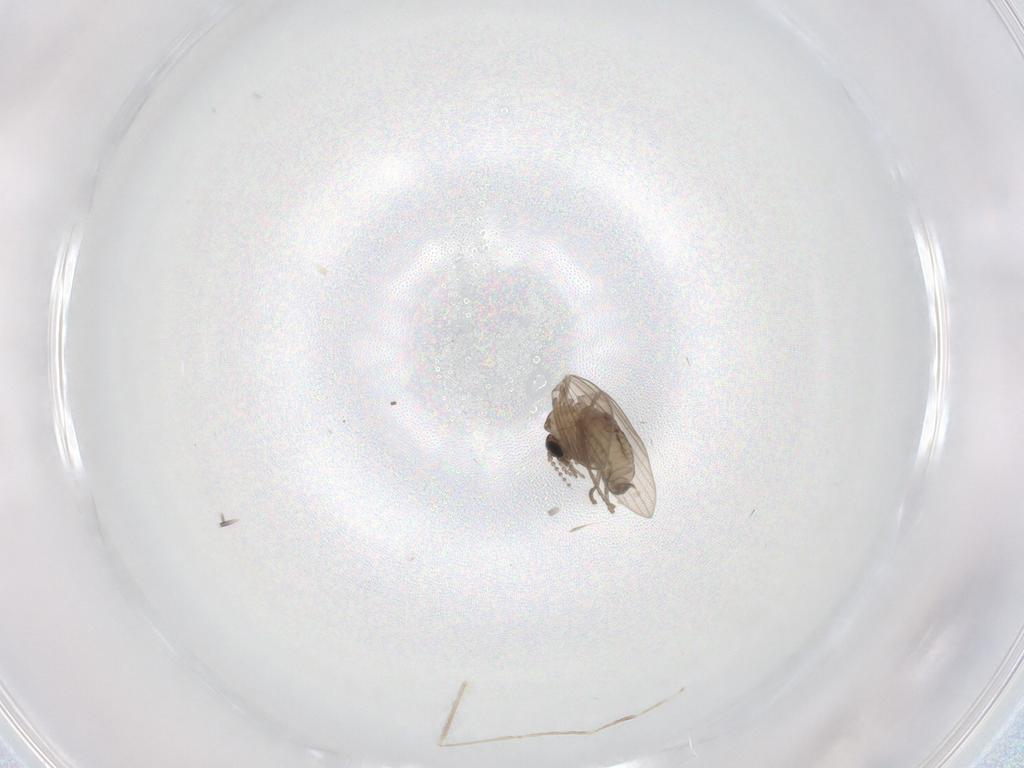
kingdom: Animalia
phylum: Arthropoda
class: Insecta
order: Diptera
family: Cecidomyiidae
